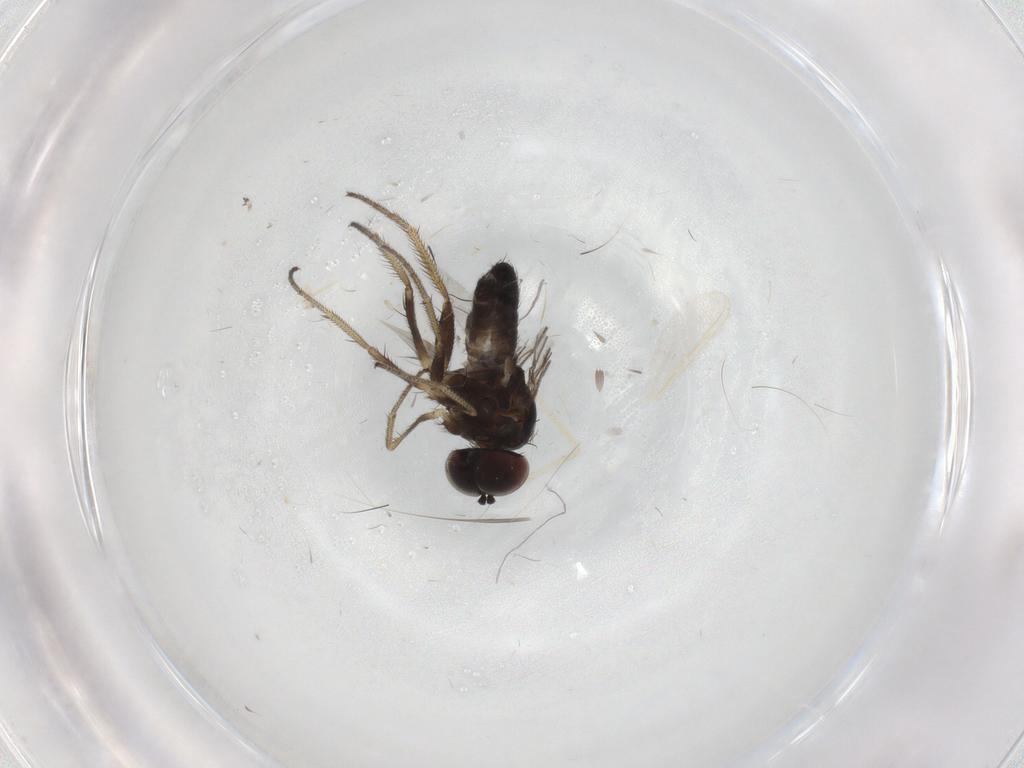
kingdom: Animalia
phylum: Arthropoda
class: Insecta
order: Diptera
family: Dolichopodidae
